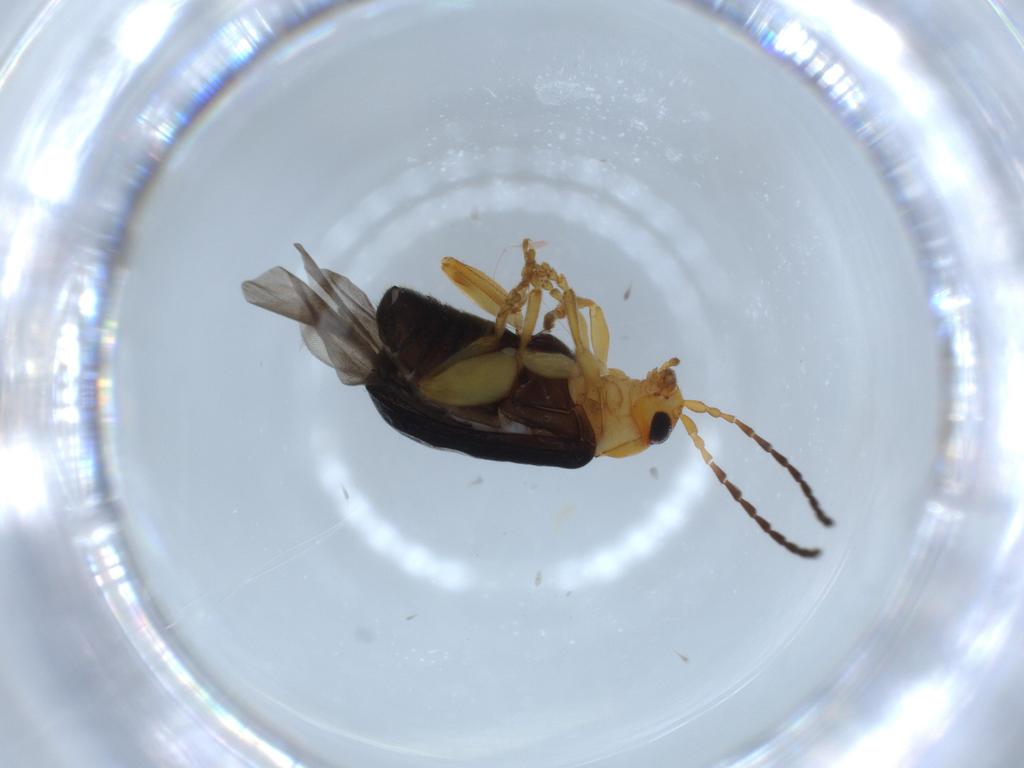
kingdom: Animalia
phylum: Arthropoda
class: Insecta
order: Coleoptera
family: Chrysomelidae
